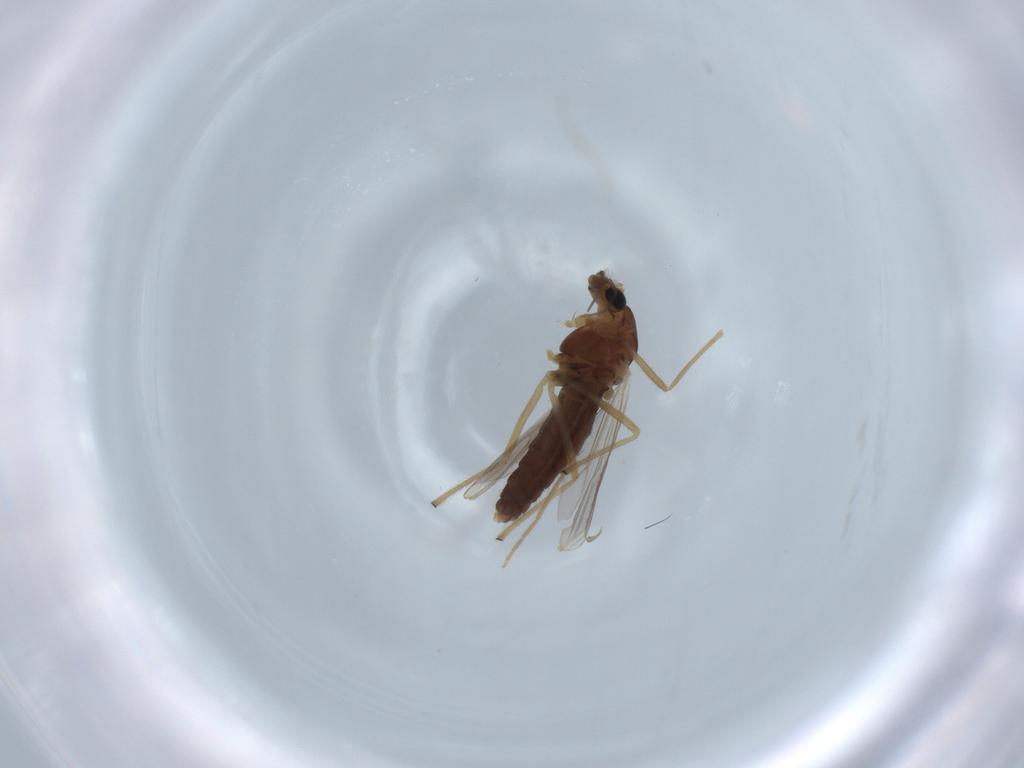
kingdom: Animalia
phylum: Arthropoda
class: Insecta
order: Diptera
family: Chironomidae
